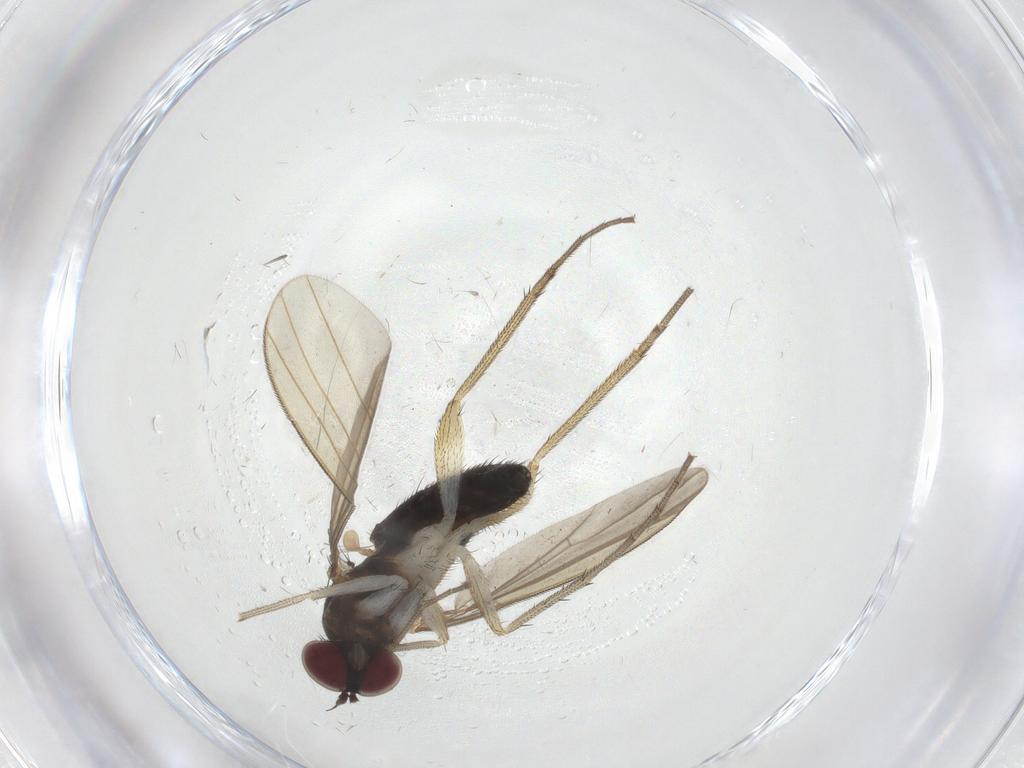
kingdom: Animalia
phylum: Arthropoda
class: Insecta
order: Diptera
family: Dolichopodidae
